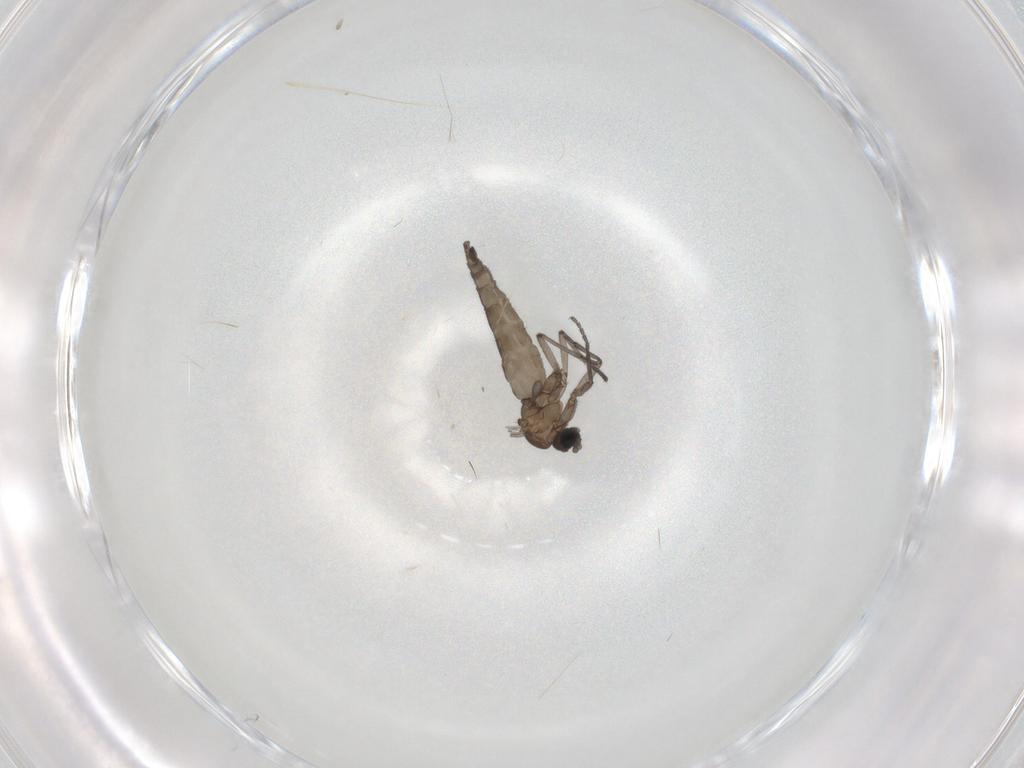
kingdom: Animalia
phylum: Arthropoda
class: Insecta
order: Diptera
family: Sciaridae
